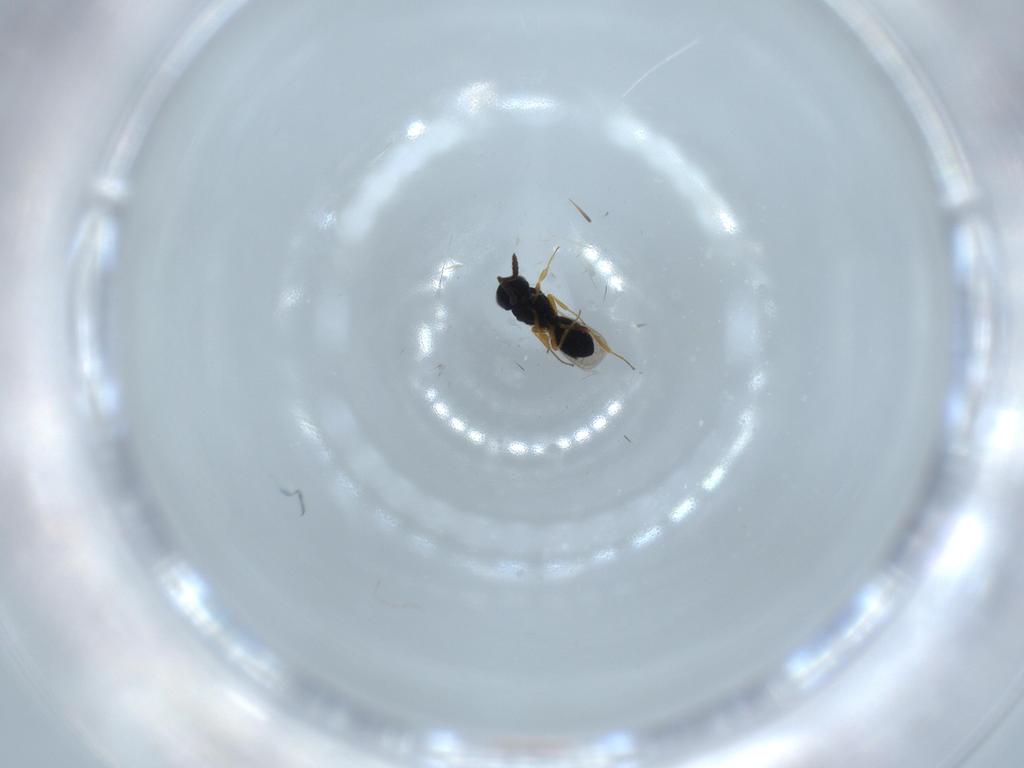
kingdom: Animalia
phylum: Arthropoda
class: Insecta
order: Hymenoptera
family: Scelionidae
